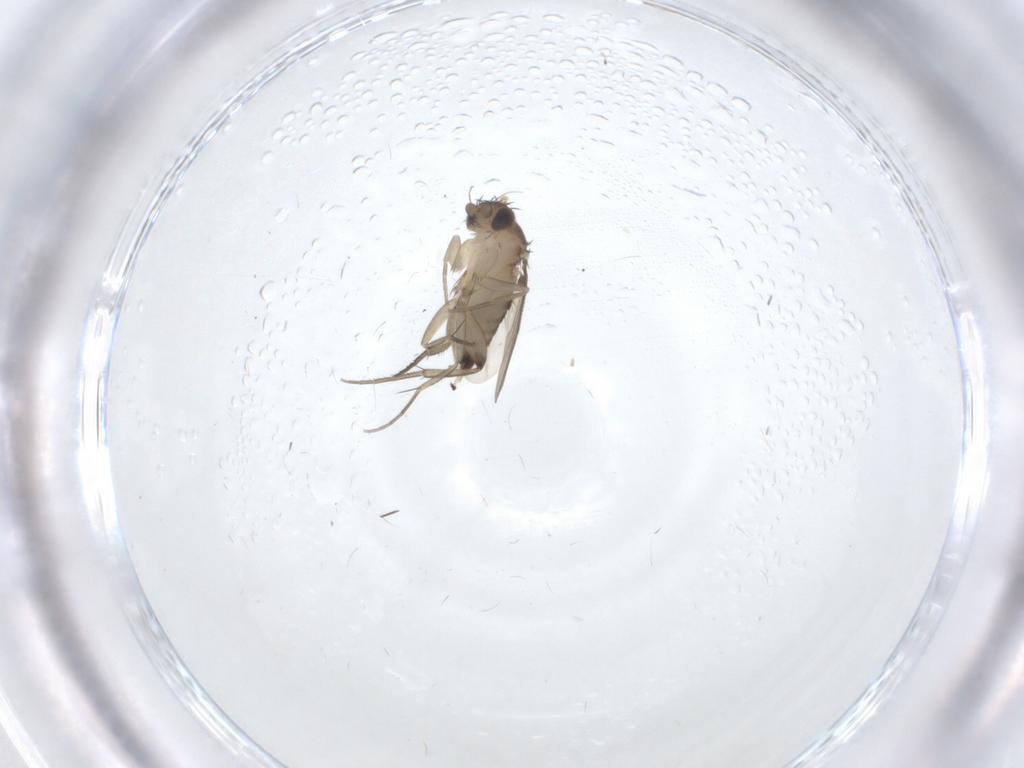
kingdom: Animalia
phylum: Arthropoda
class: Insecta
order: Diptera
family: Phoridae
